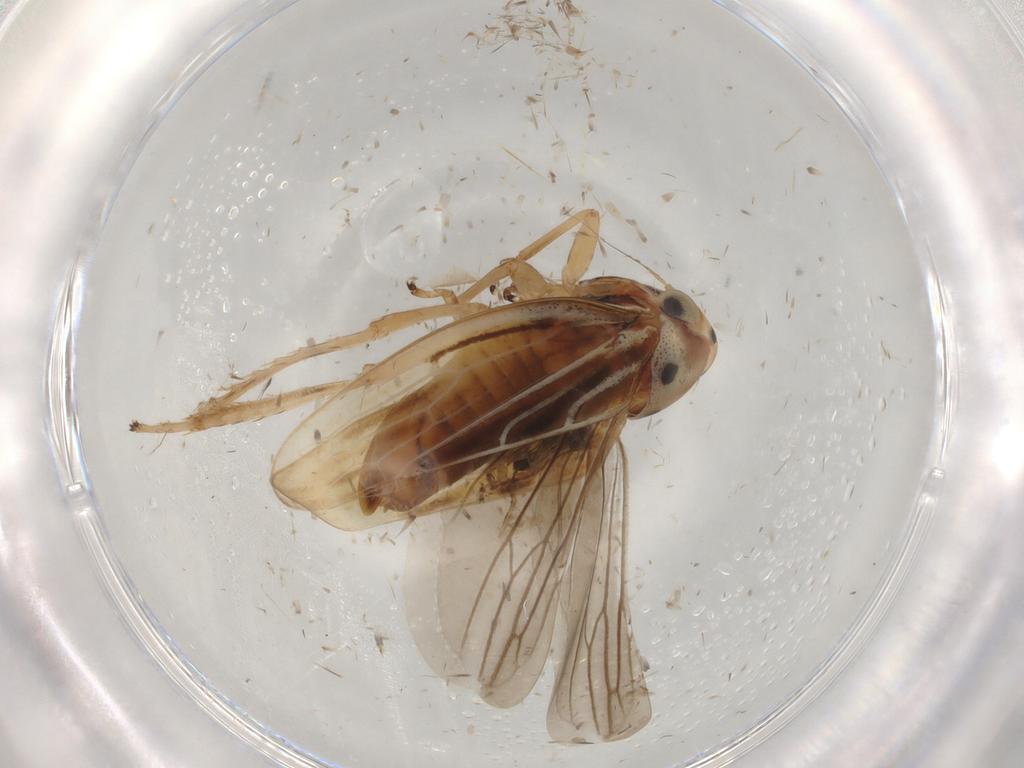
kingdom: Animalia
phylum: Arthropoda
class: Insecta
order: Hemiptera
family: Cicadellidae
